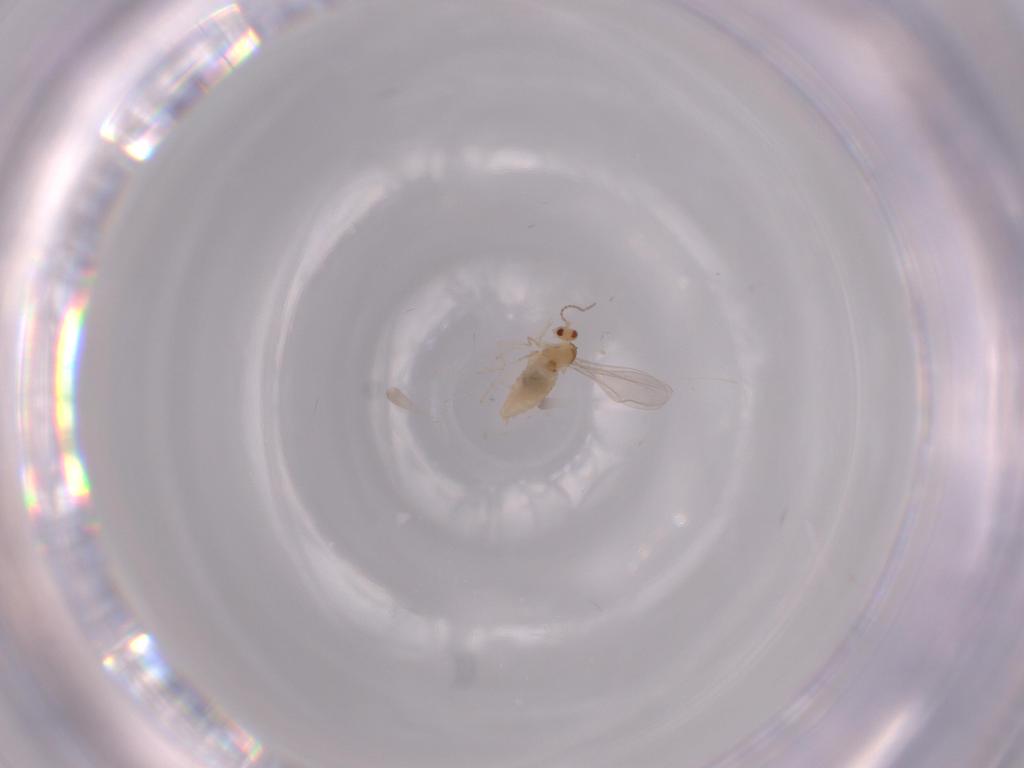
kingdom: Animalia
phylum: Arthropoda
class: Insecta
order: Diptera
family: Cecidomyiidae
